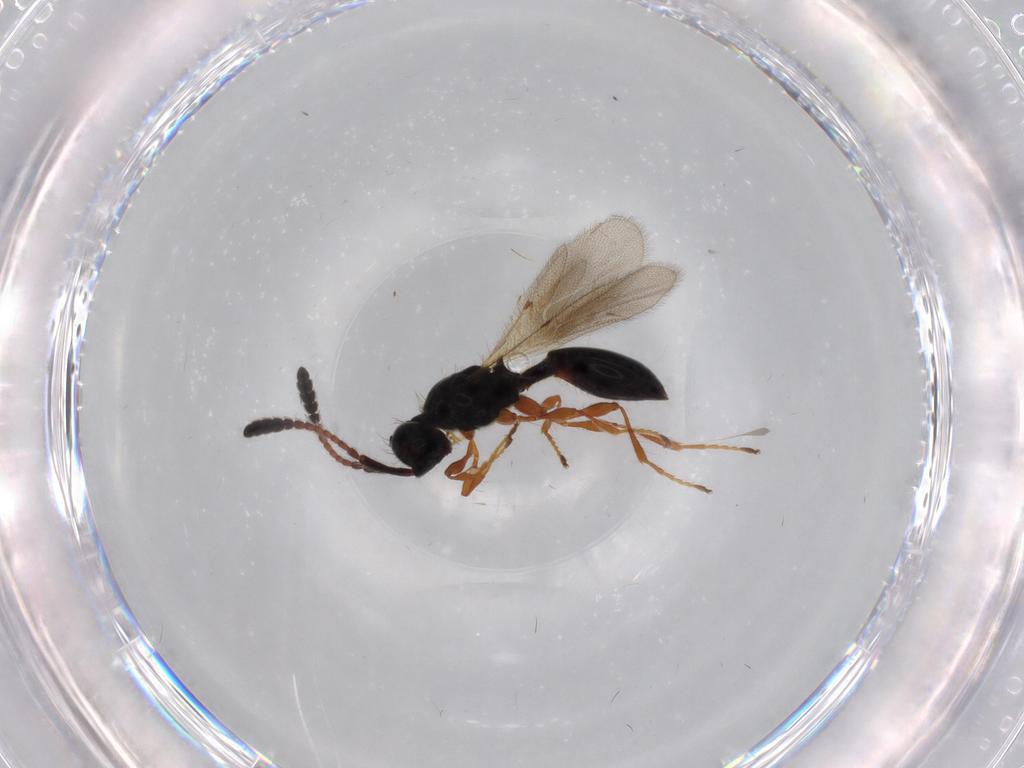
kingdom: Animalia
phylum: Arthropoda
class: Insecta
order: Hymenoptera
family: Diapriidae
